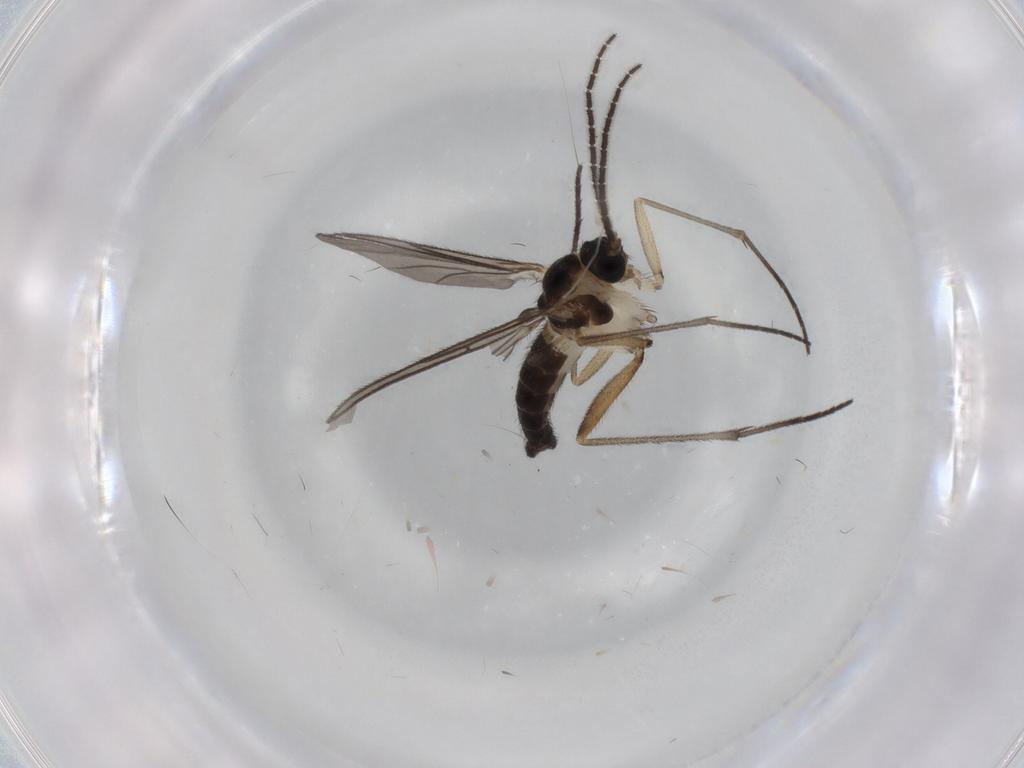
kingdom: Animalia
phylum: Arthropoda
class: Insecta
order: Diptera
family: Sciaridae
